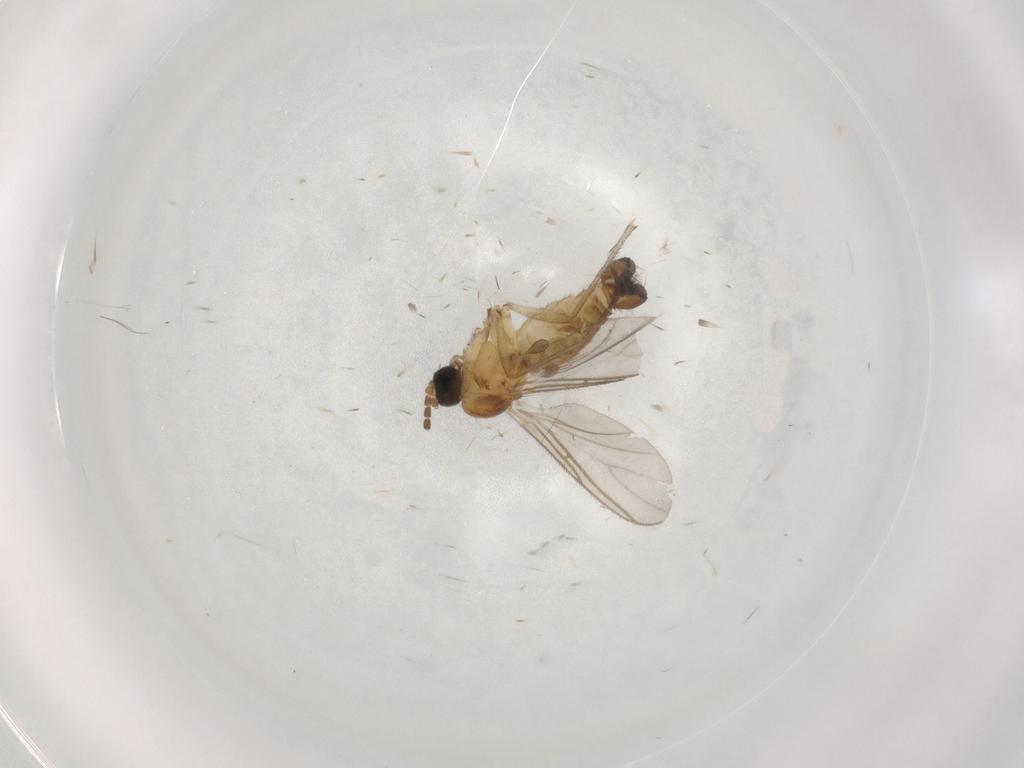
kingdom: Animalia
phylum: Arthropoda
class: Insecta
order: Diptera
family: Sciaridae
